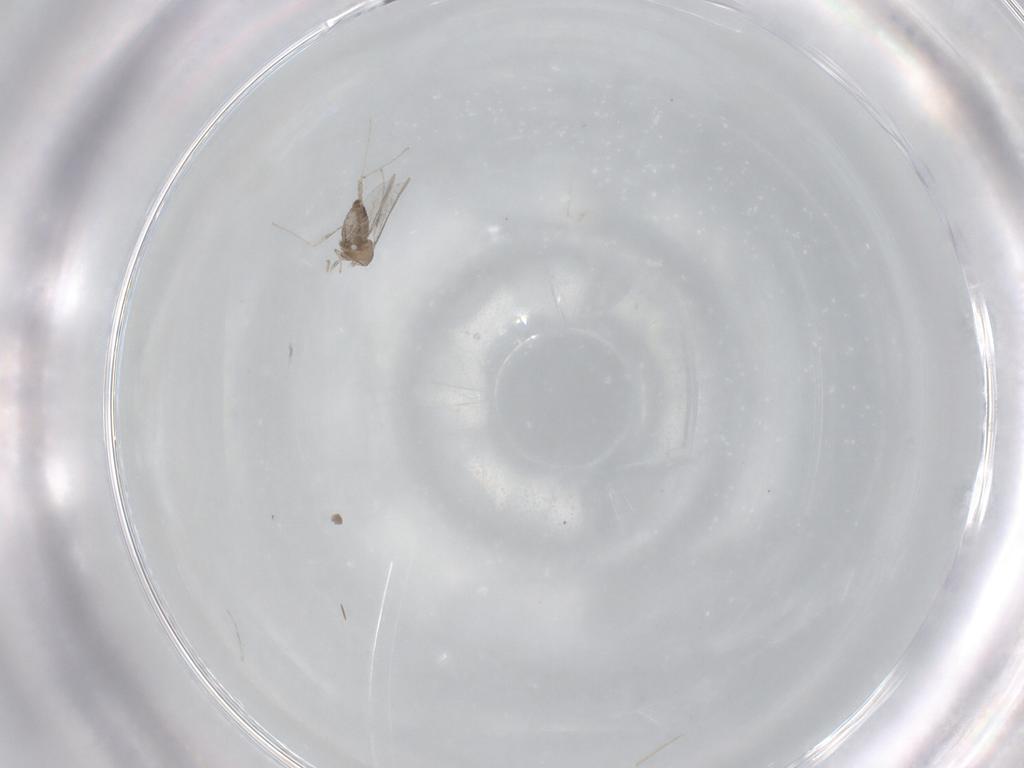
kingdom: Animalia
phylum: Arthropoda
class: Insecta
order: Diptera
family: Cecidomyiidae
